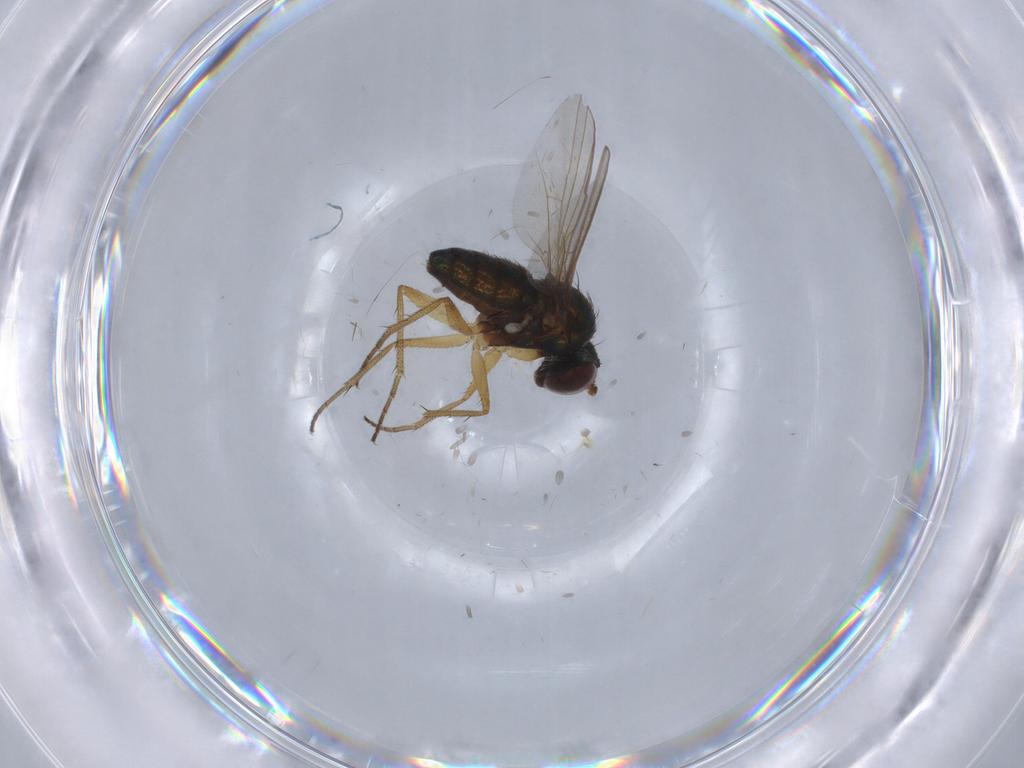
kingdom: Animalia
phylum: Arthropoda
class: Insecta
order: Diptera
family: Dolichopodidae
